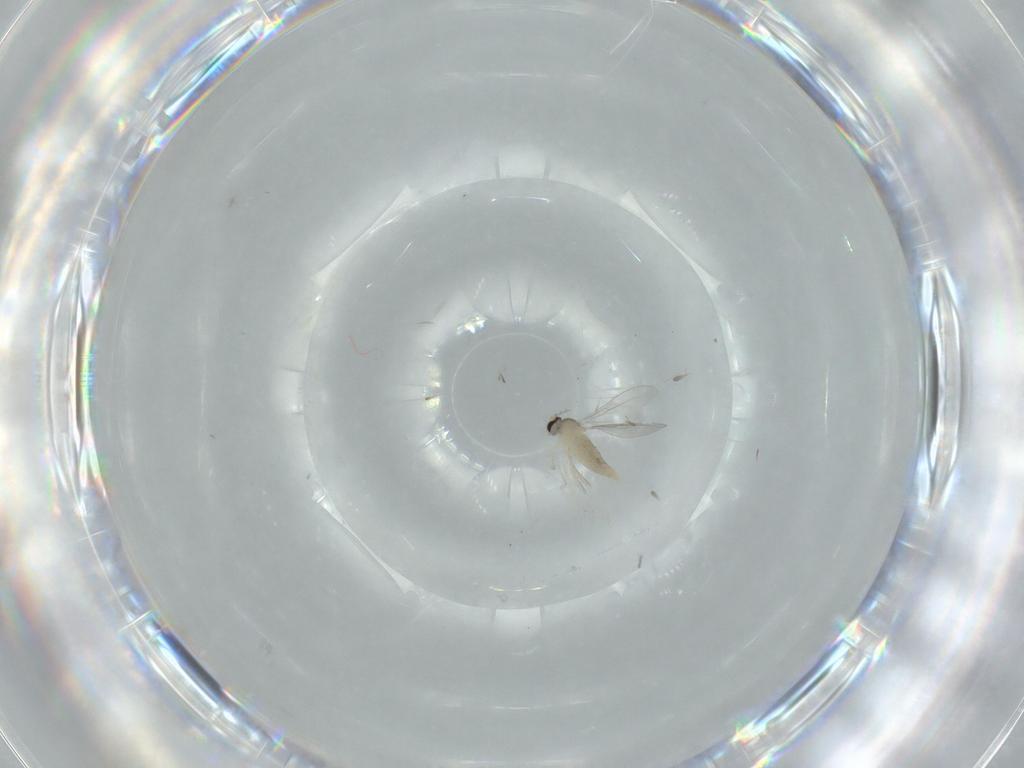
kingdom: Animalia
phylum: Arthropoda
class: Insecta
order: Diptera
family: Cecidomyiidae
